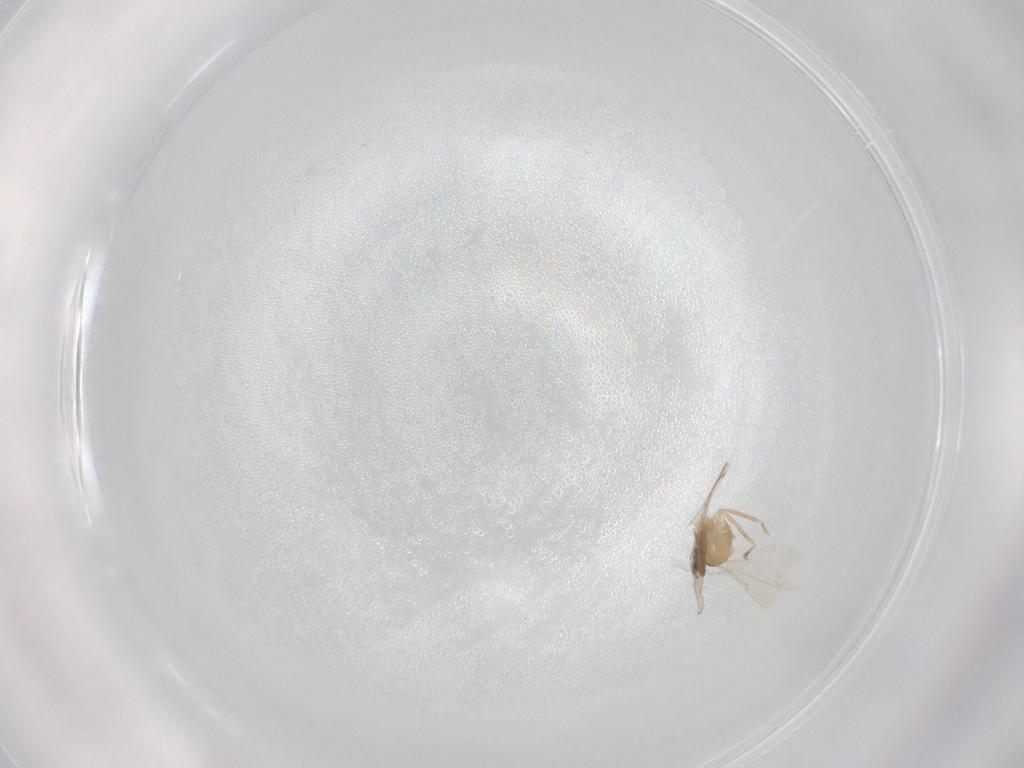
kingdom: Animalia
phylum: Arthropoda
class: Insecta
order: Diptera
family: Cecidomyiidae
